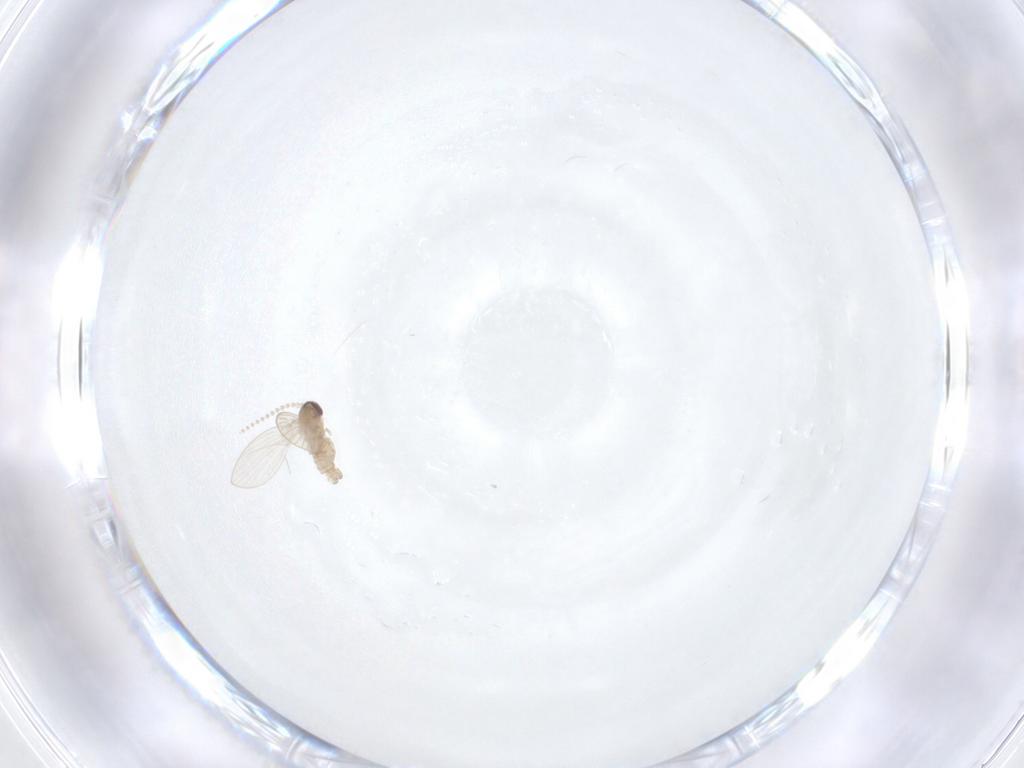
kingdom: Animalia
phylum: Arthropoda
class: Insecta
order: Diptera
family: Psychodidae
